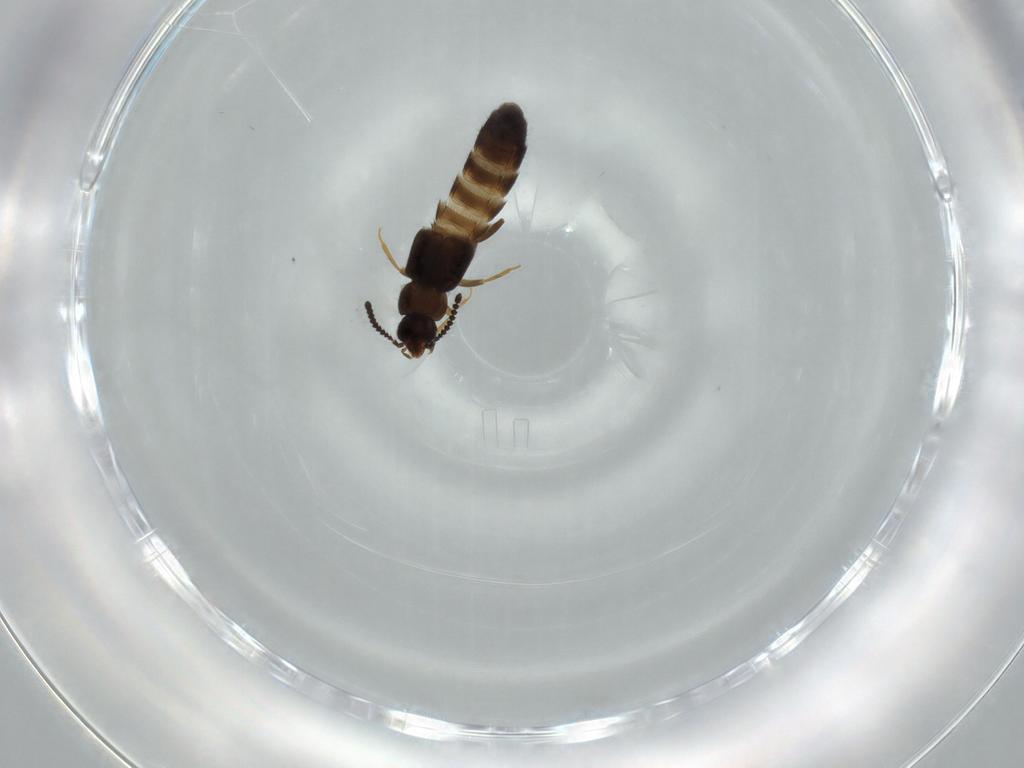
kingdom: Animalia
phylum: Arthropoda
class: Insecta
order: Coleoptera
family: Staphylinidae
